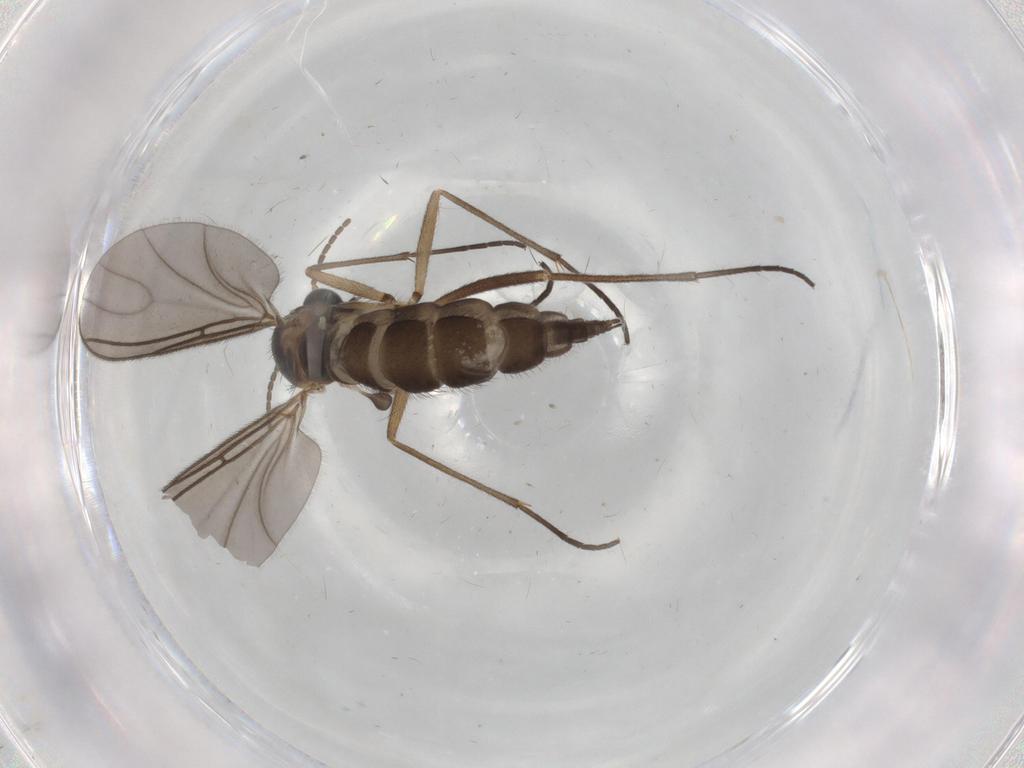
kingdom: Animalia
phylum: Arthropoda
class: Insecta
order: Diptera
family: Sciaridae
